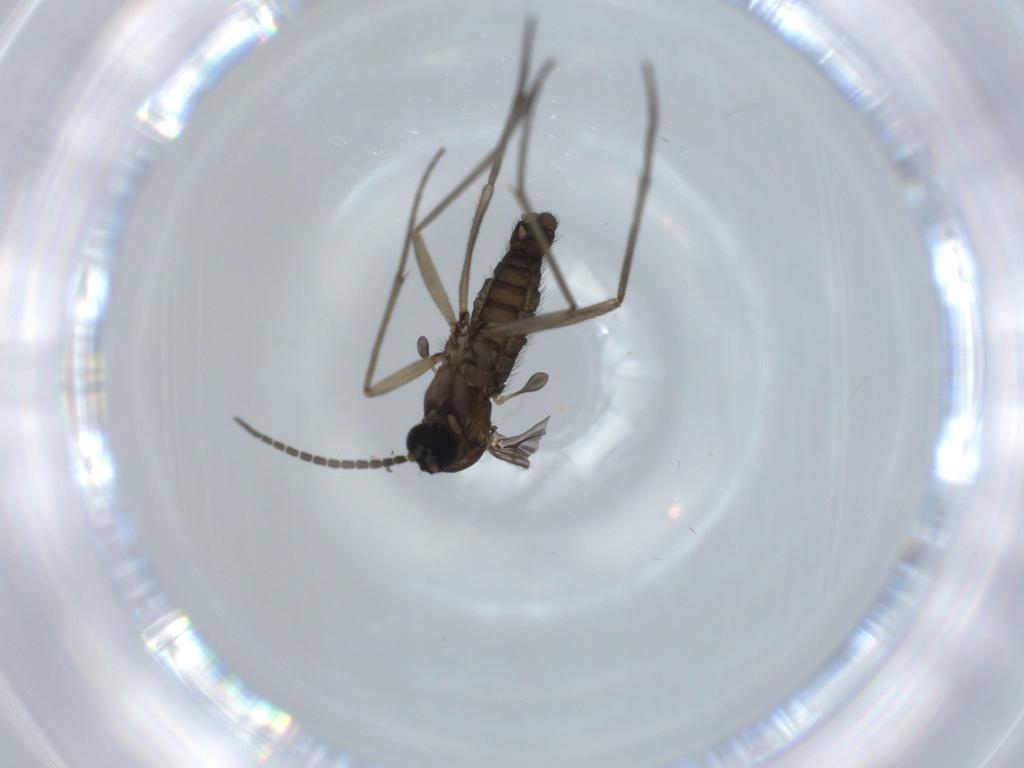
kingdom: Animalia
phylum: Arthropoda
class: Insecta
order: Diptera
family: Sciaridae
